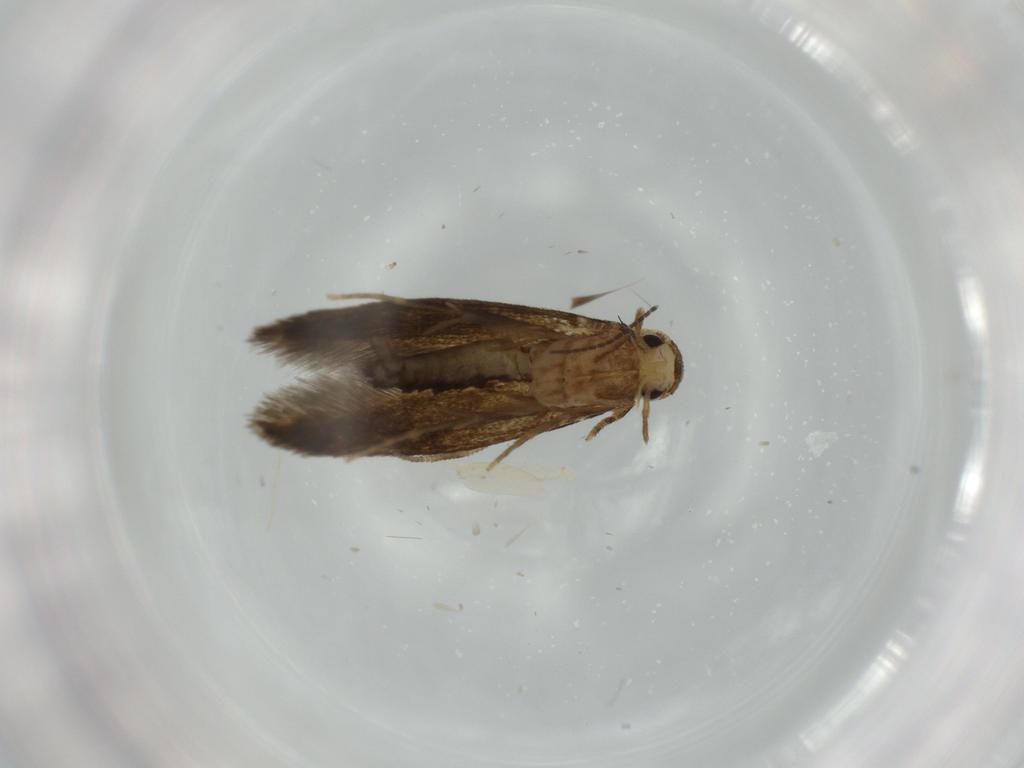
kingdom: Animalia
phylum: Arthropoda
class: Insecta
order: Lepidoptera
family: Tineidae
